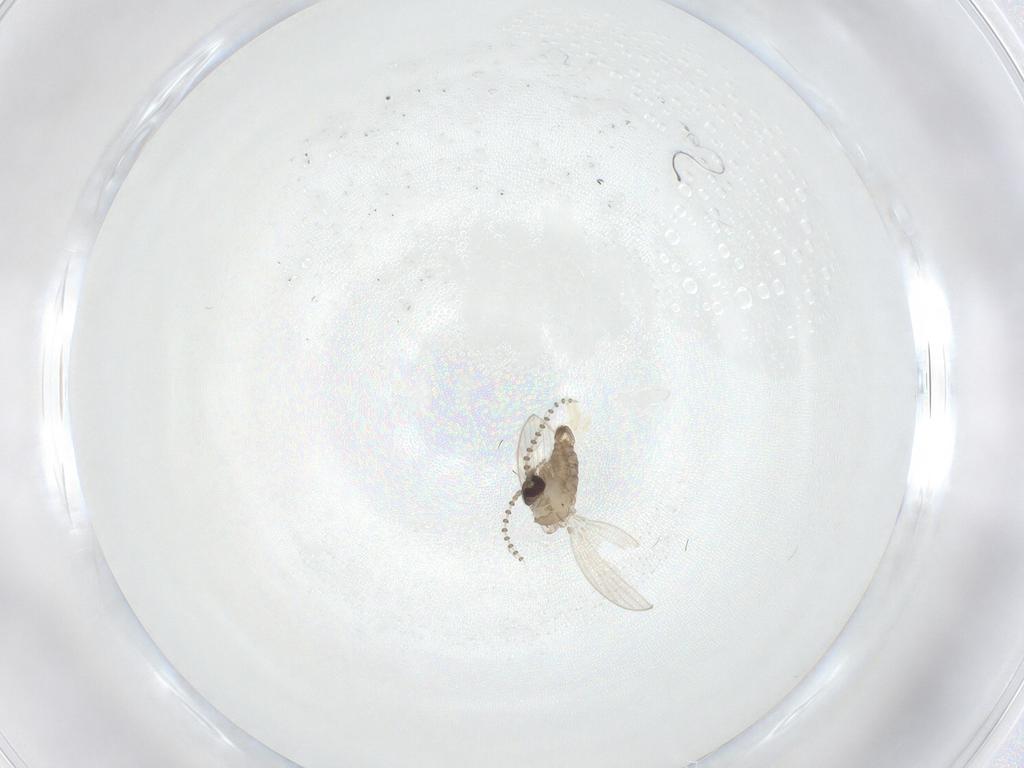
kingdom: Animalia
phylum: Arthropoda
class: Insecta
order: Diptera
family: Psychodidae
